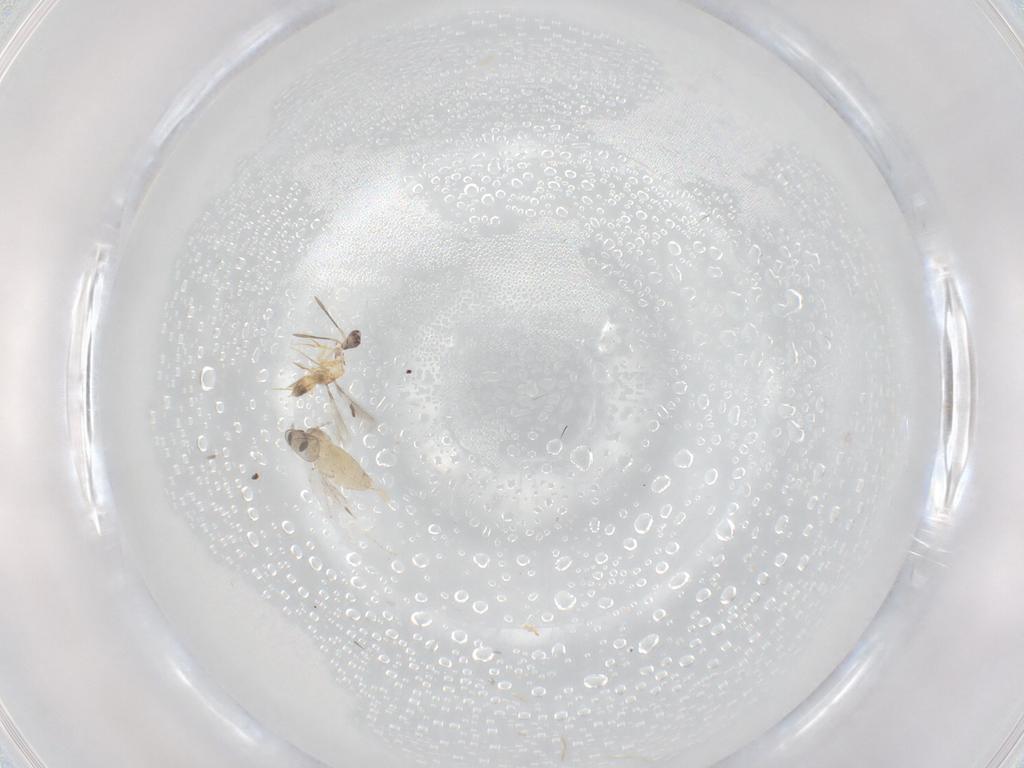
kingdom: Animalia
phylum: Arthropoda
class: Insecta
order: Diptera
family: Cecidomyiidae
